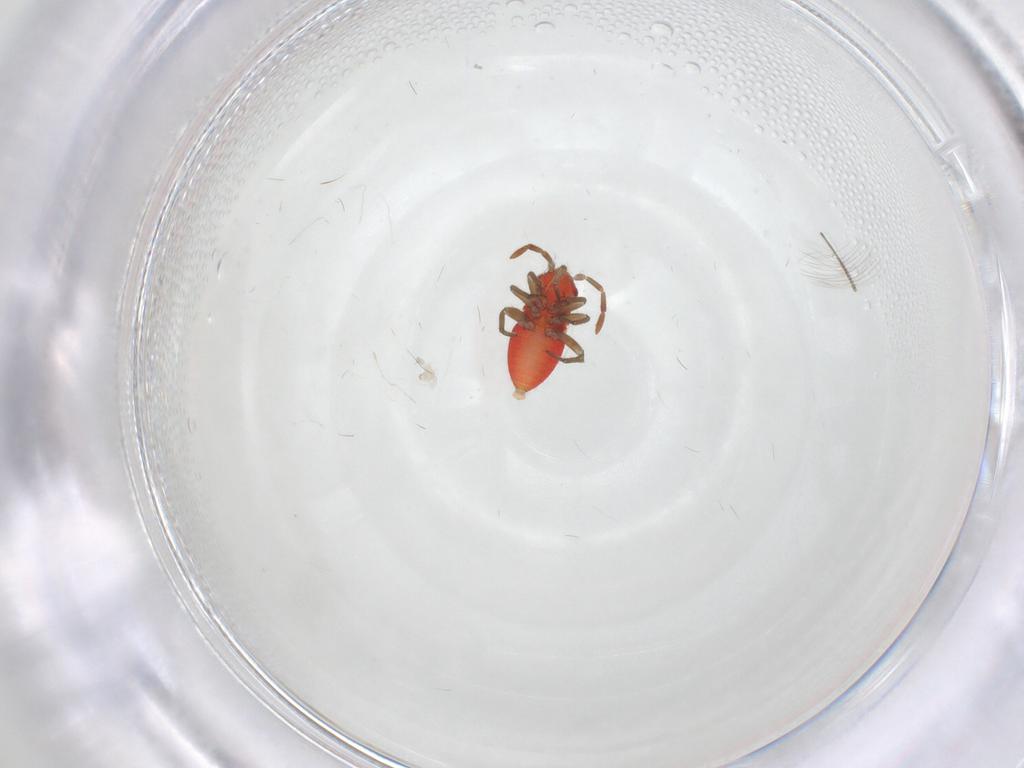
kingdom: Animalia
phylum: Arthropoda
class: Insecta
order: Hemiptera
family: Miridae
